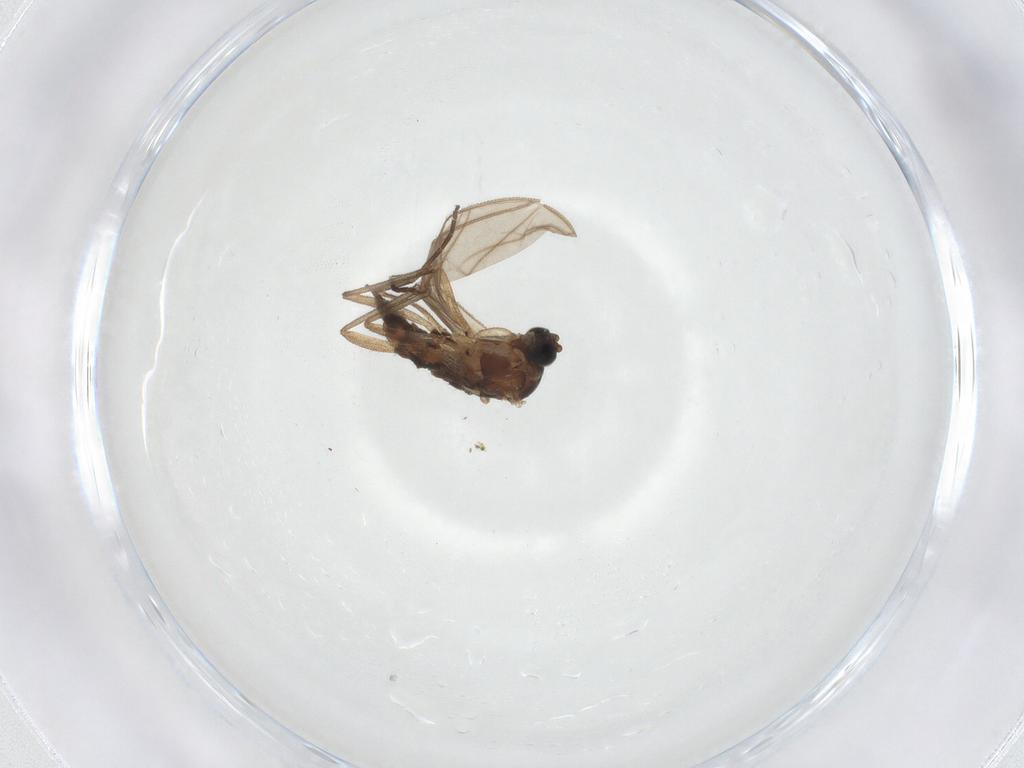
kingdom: Animalia
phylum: Arthropoda
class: Insecta
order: Diptera
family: Sciaridae
